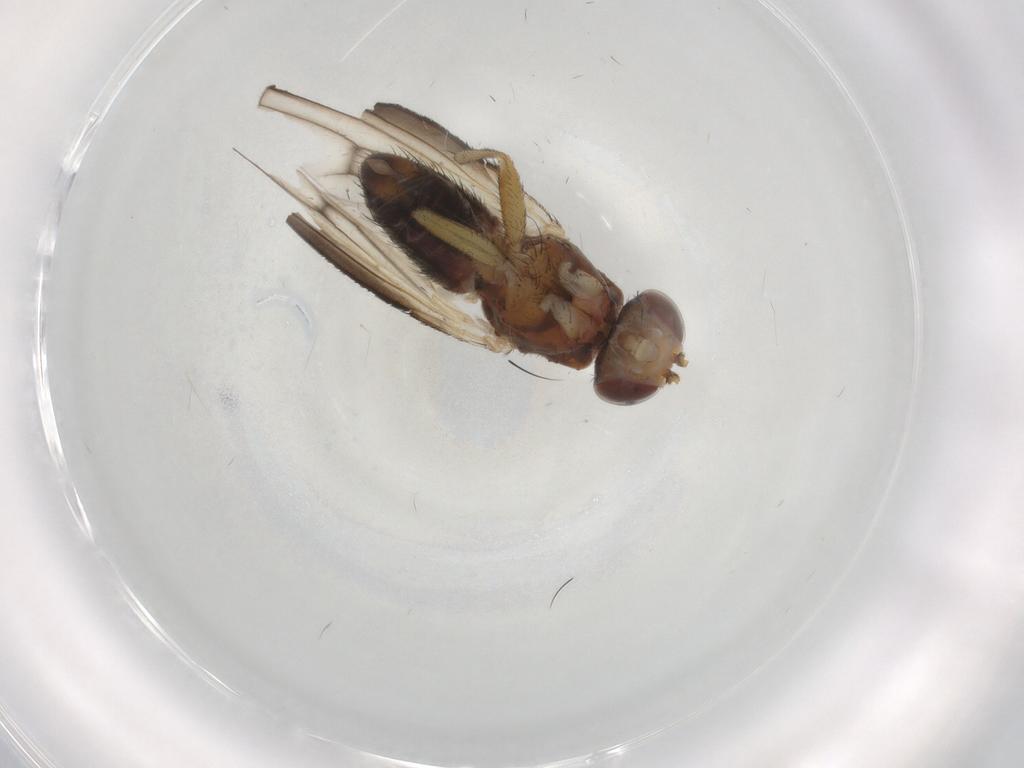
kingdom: Animalia
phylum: Arthropoda
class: Insecta
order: Diptera
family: Heleomyzidae
